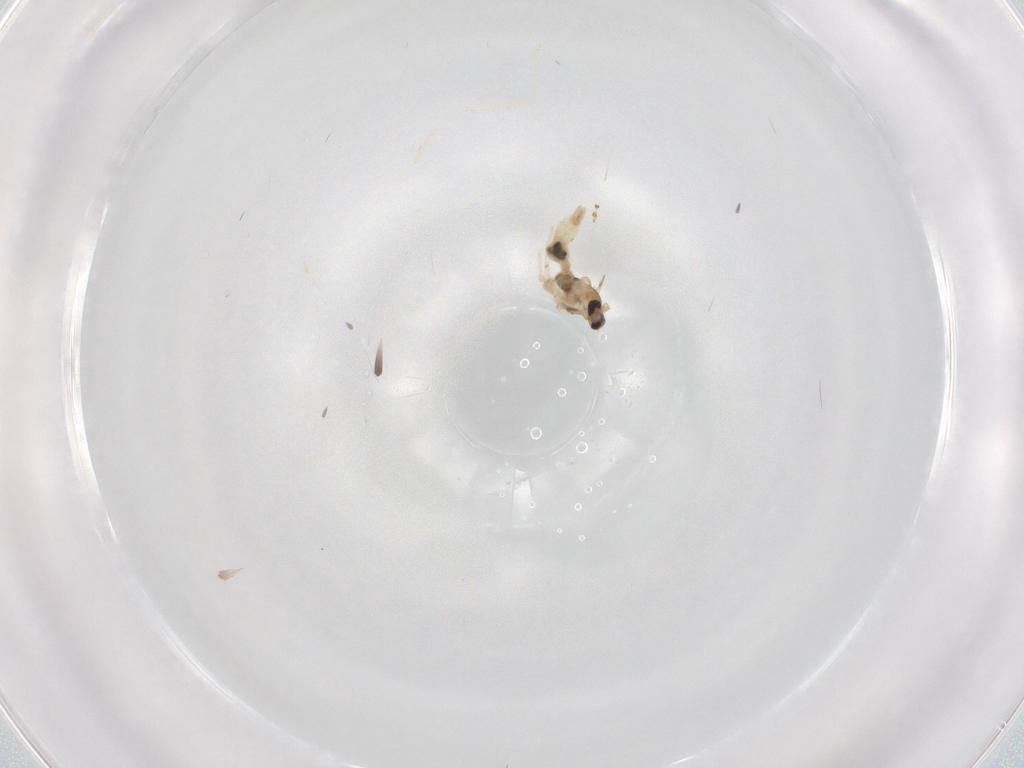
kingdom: Animalia
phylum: Arthropoda
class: Insecta
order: Diptera
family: Cecidomyiidae
